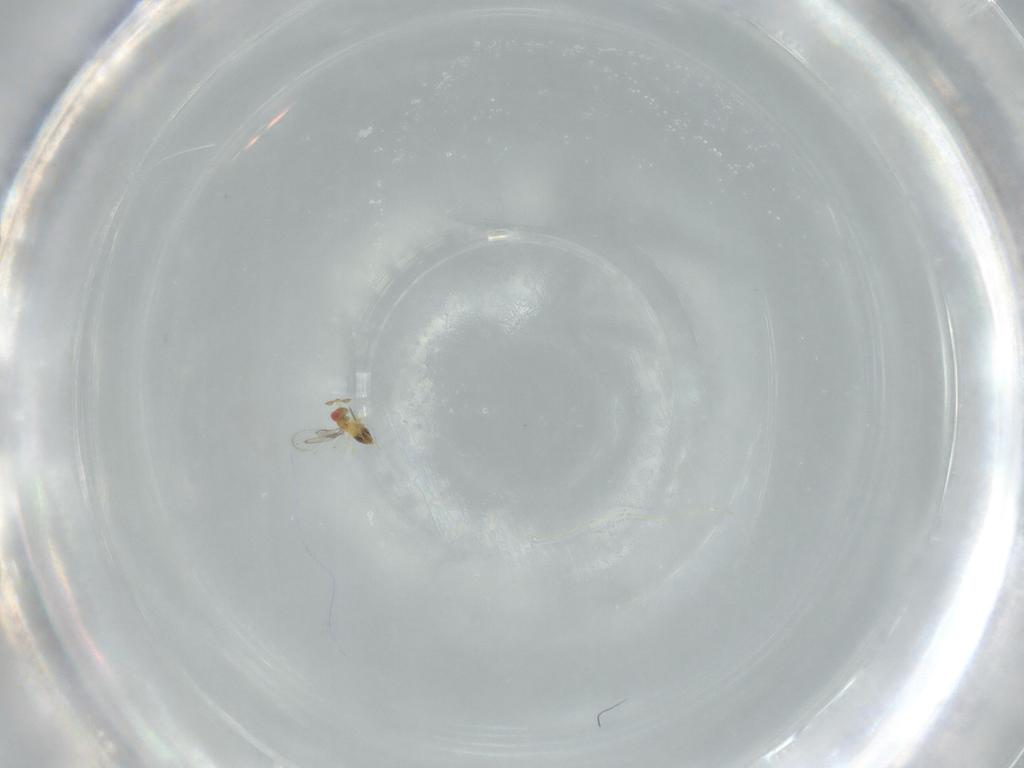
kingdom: Animalia
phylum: Arthropoda
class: Insecta
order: Hymenoptera
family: Trichogrammatidae
